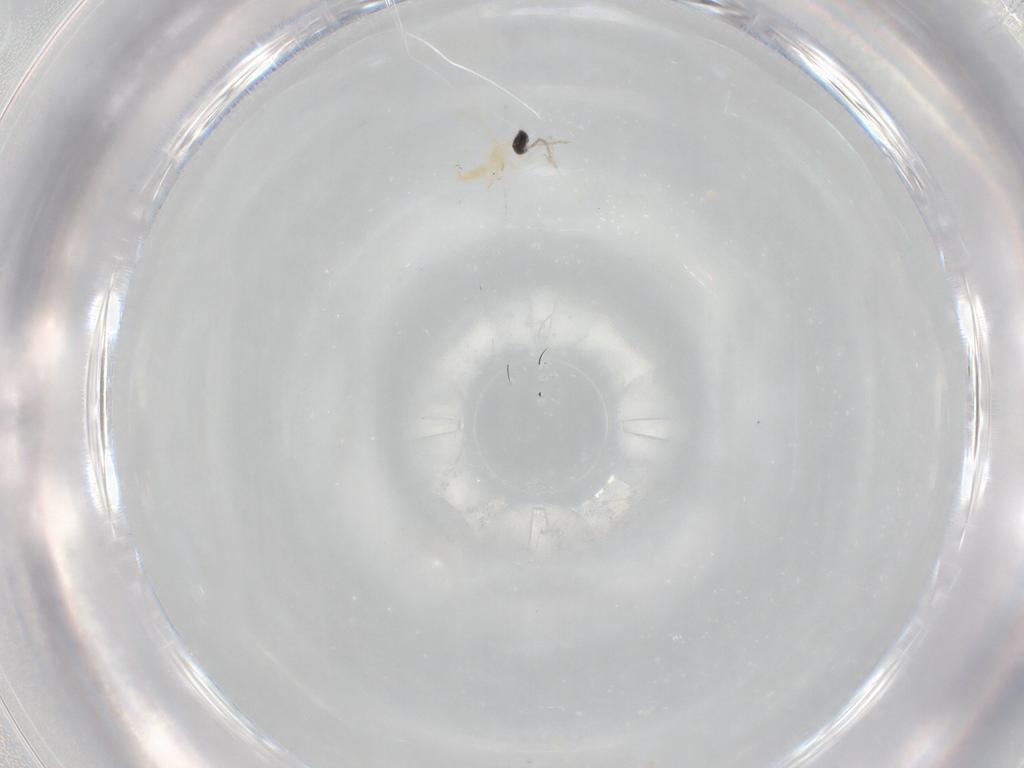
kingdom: Animalia
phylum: Arthropoda
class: Insecta
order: Diptera
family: Cecidomyiidae
